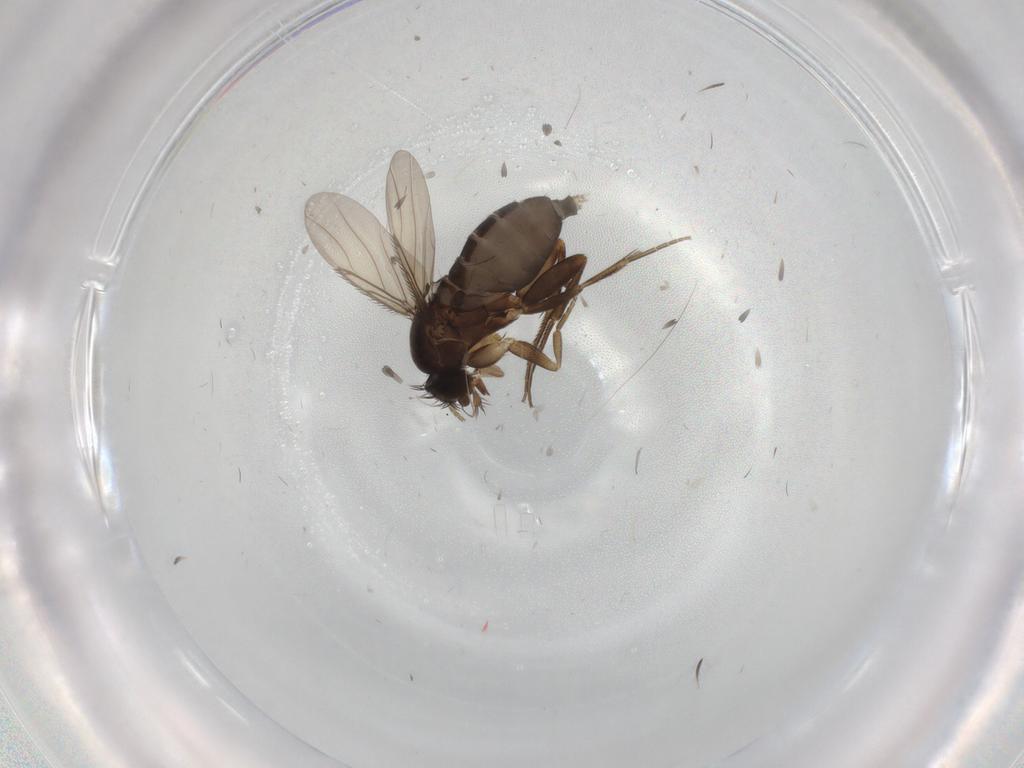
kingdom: Animalia
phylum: Arthropoda
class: Insecta
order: Diptera
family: Phoridae
